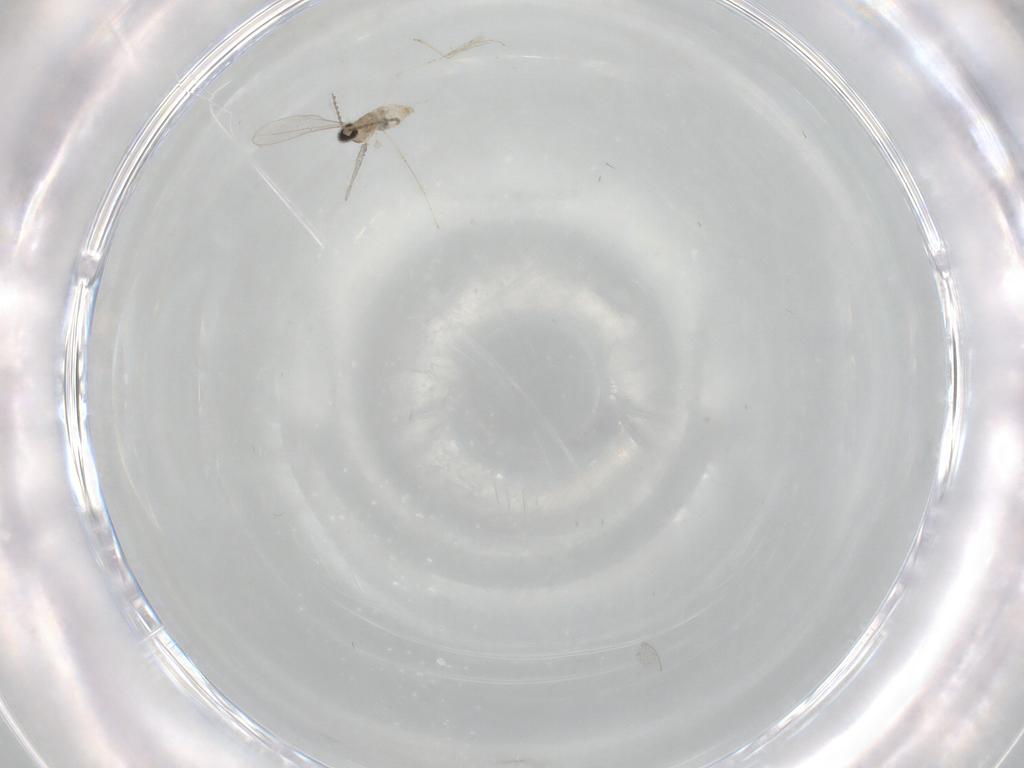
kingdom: Animalia
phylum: Arthropoda
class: Insecta
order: Diptera
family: Cecidomyiidae
